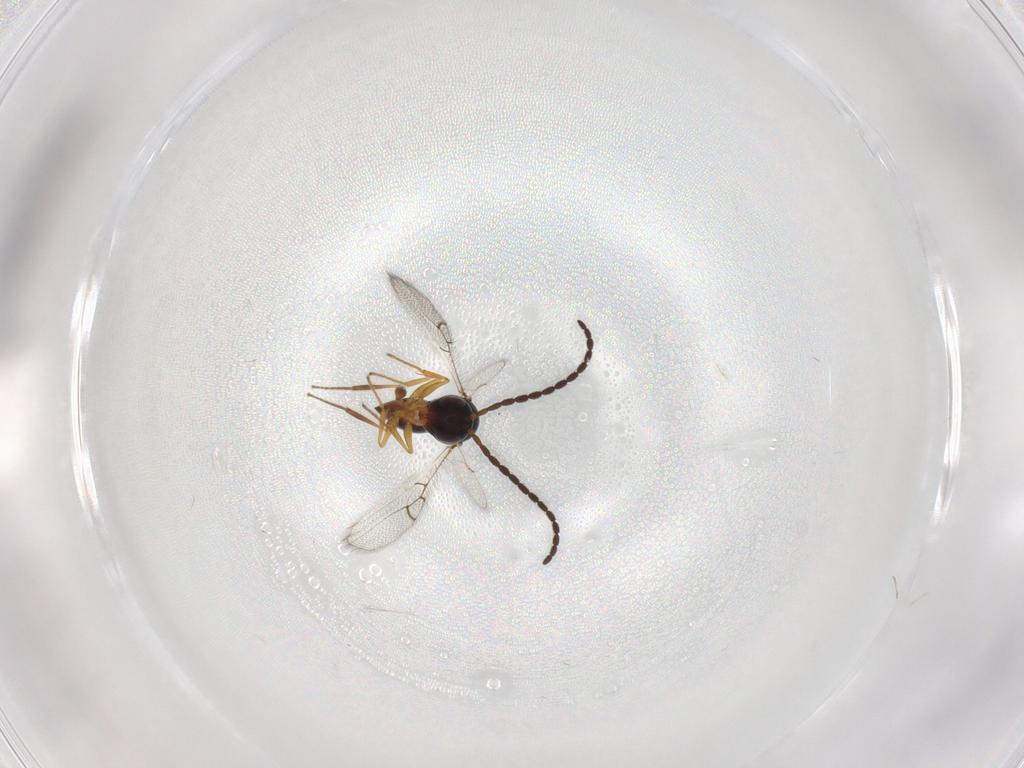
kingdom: Animalia
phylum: Arthropoda
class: Insecta
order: Hymenoptera
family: Figitidae
